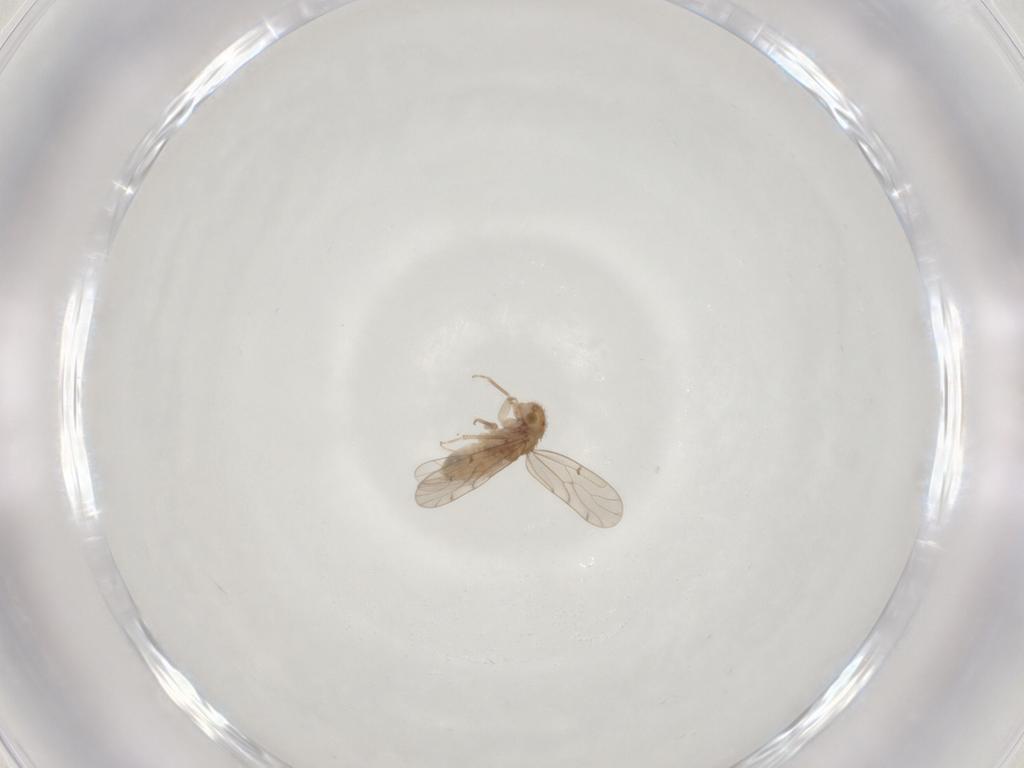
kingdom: Animalia
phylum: Arthropoda
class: Insecta
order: Psocodea
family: Ectopsocidae
